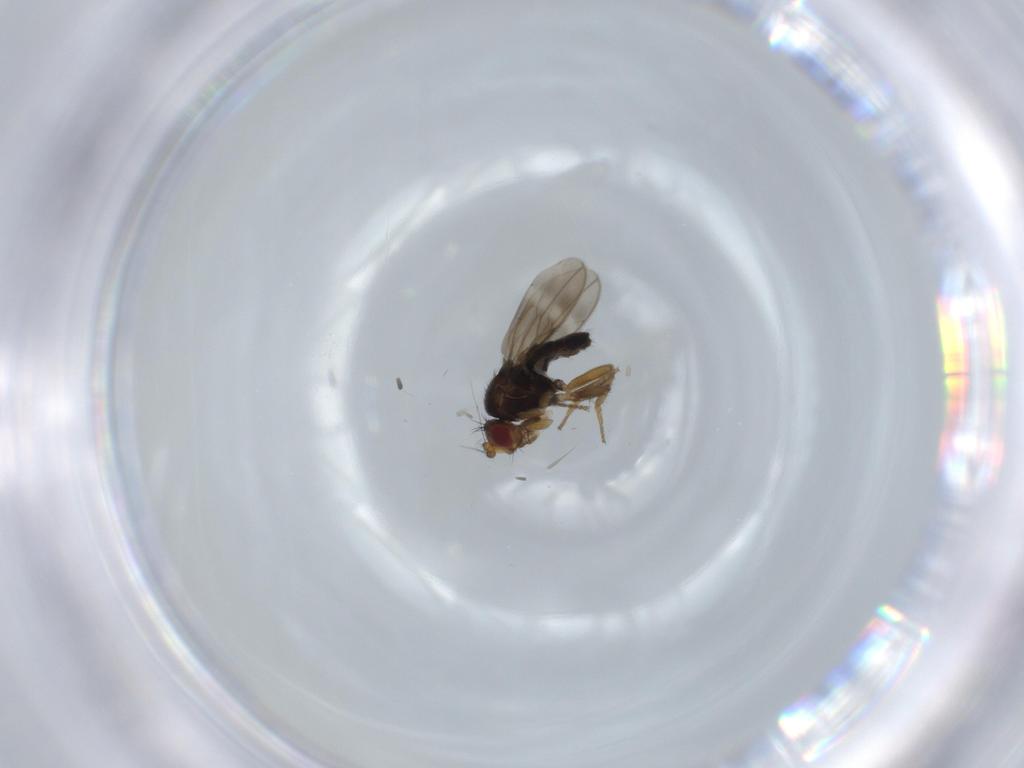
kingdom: Animalia
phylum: Arthropoda
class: Insecta
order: Diptera
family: Sphaeroceridae
